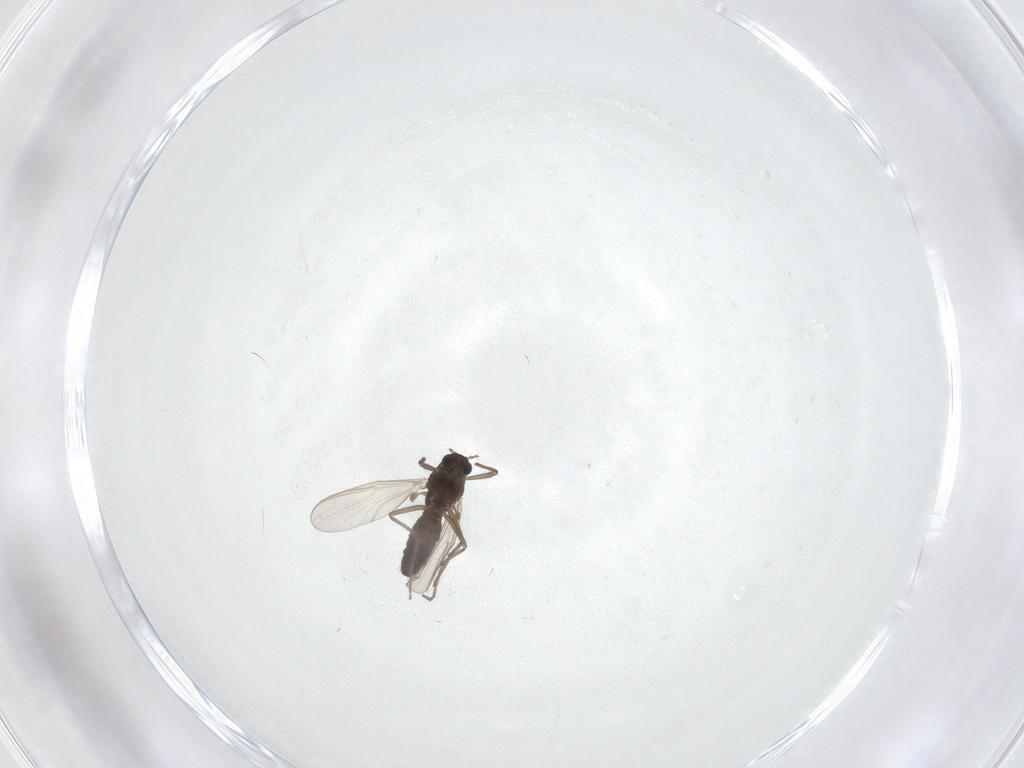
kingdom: Animalia
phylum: Arthropoda
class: Insecta
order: Diptera
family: Chironomidae
